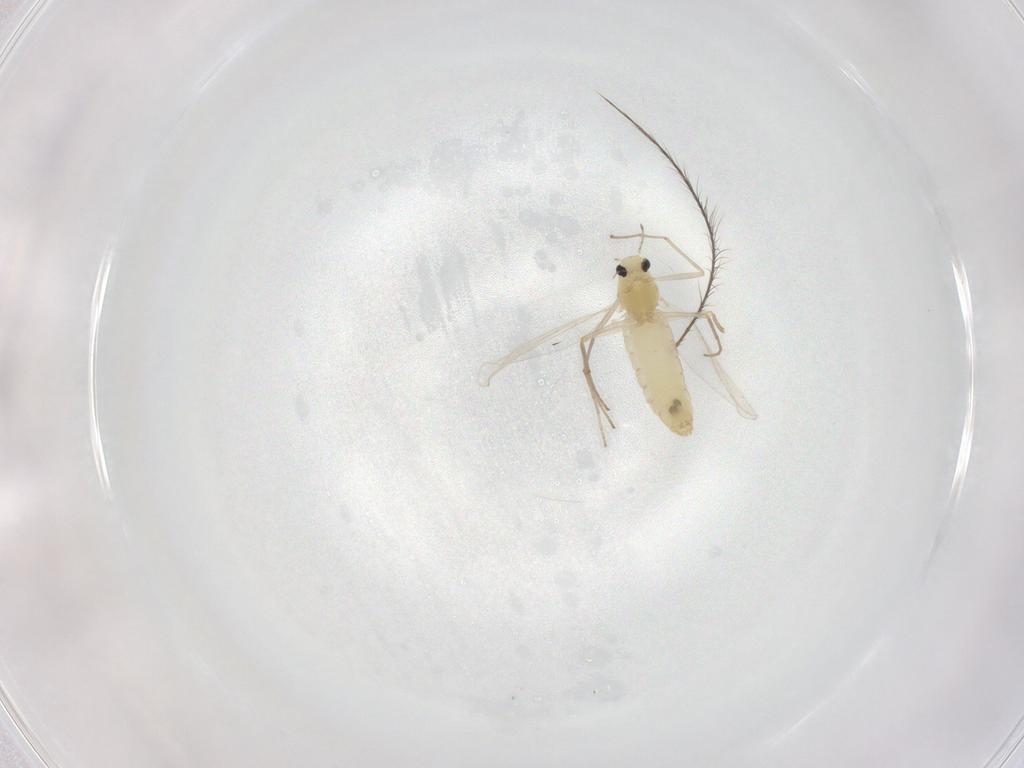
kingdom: Animalia
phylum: Arthropoda
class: Insecta
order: Diptera
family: Chironomidae
